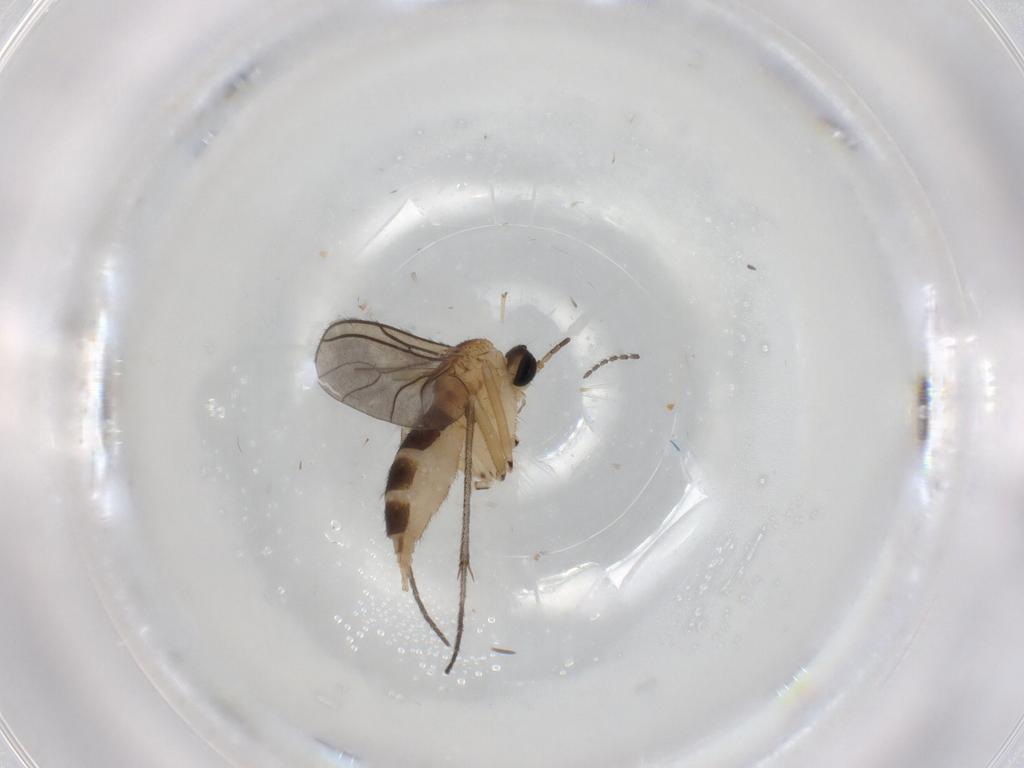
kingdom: Animalia
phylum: Arthropoda
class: Insecta
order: Diptera
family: Sciaridae
